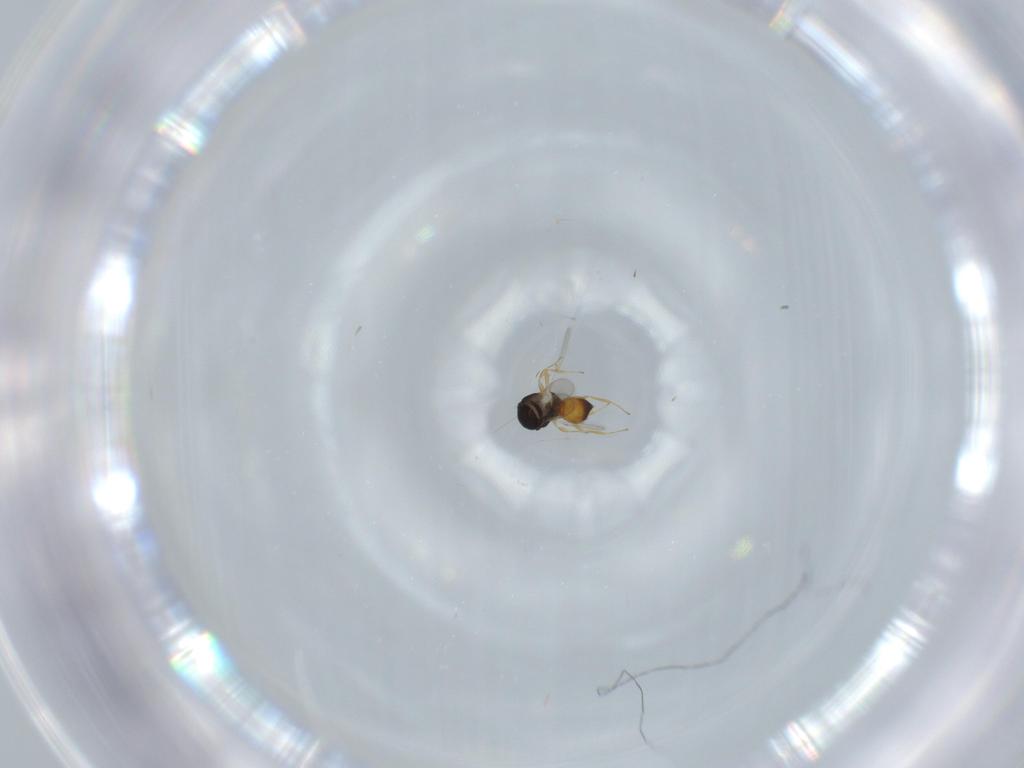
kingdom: Animalia
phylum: Arthropoda
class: Insecta
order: Hymenoptera
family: Scelionidae
